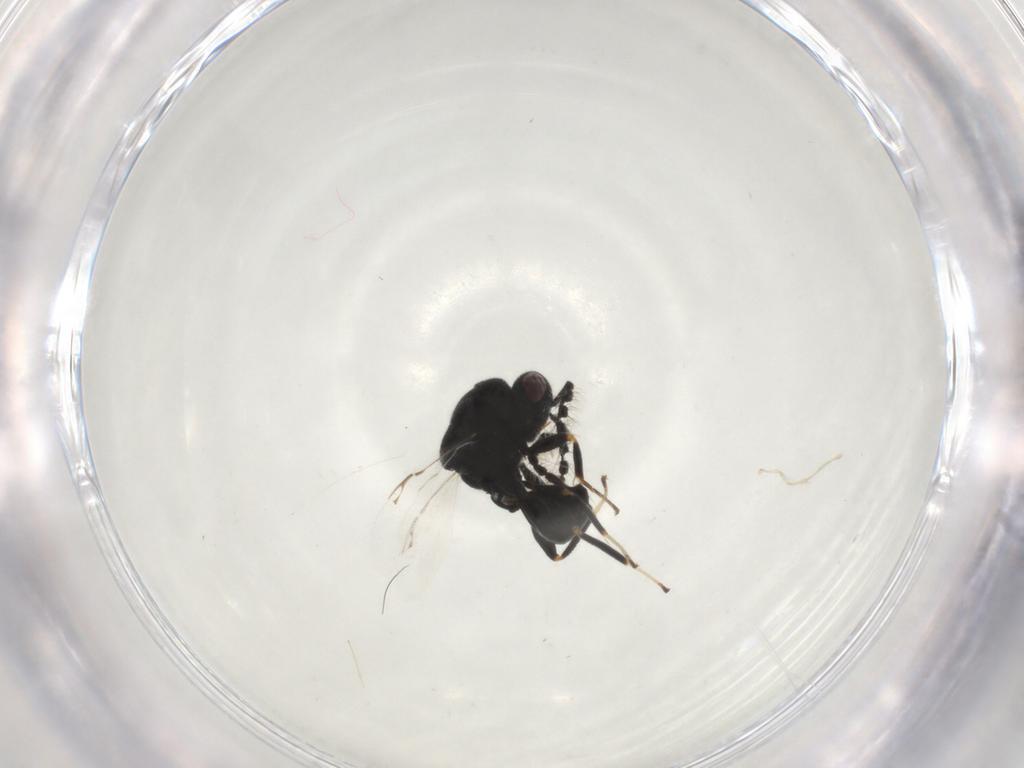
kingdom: Animalia
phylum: Arthropoda
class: Insecta
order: Hymenoptera
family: Eurytomidae
